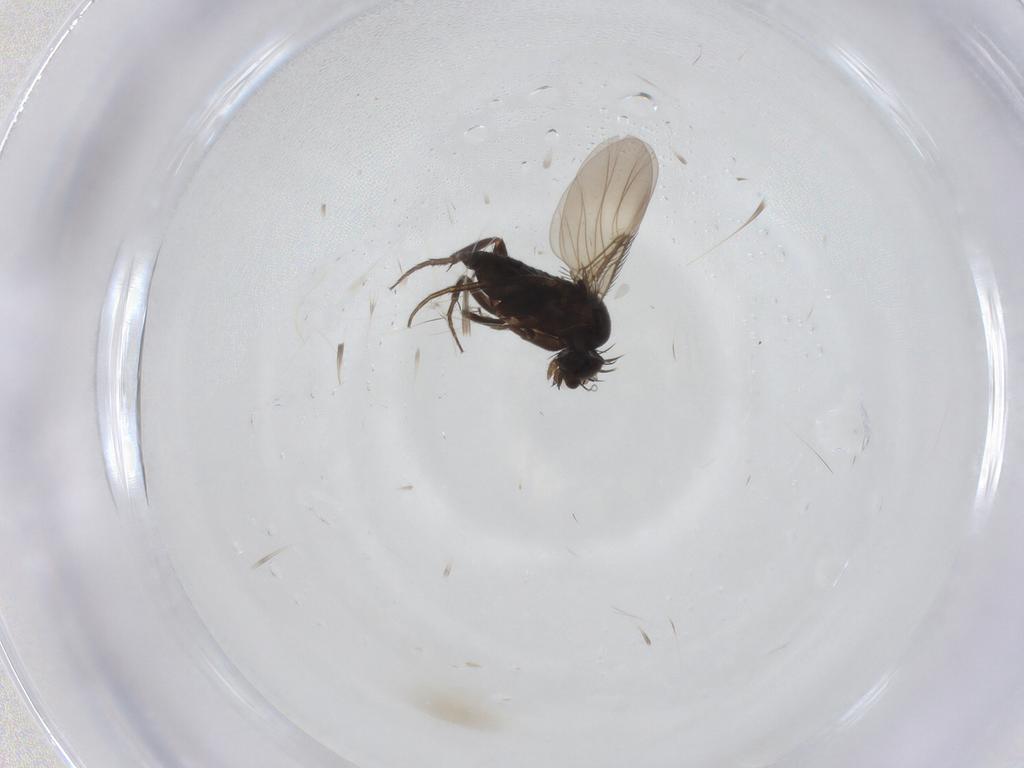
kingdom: Animalia
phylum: Arthropoda
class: Insecta
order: Diptera
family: Phoridae
